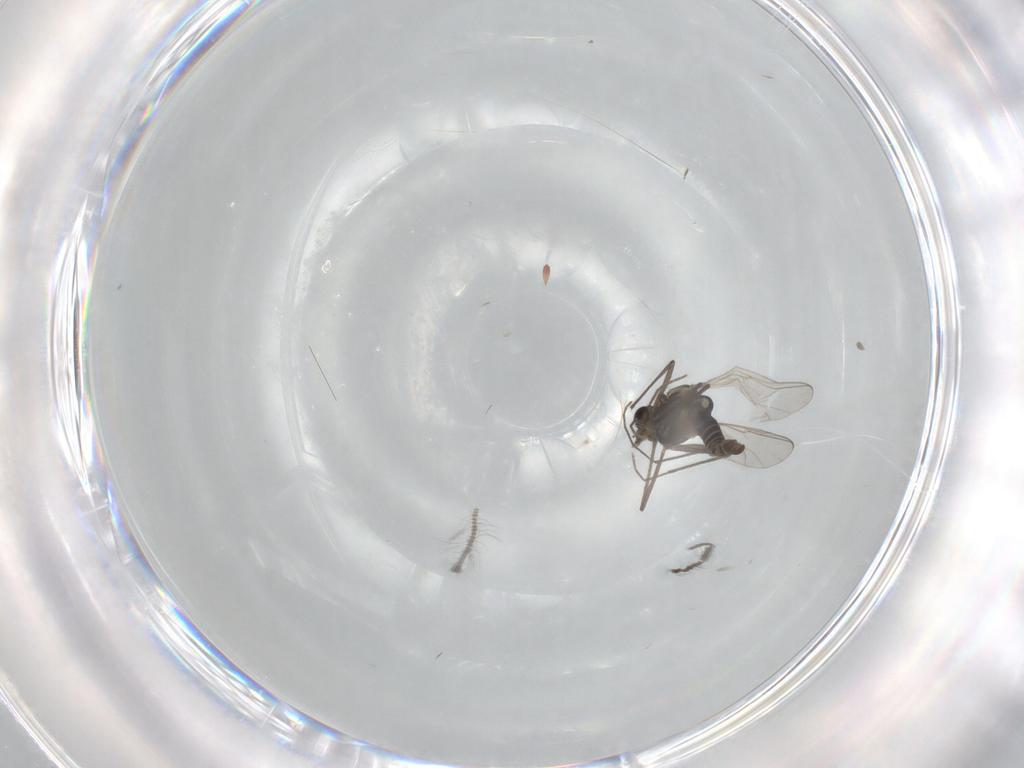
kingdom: Animalia
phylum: Arthropoda
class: Insecta
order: Diptera
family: Chironomidae
